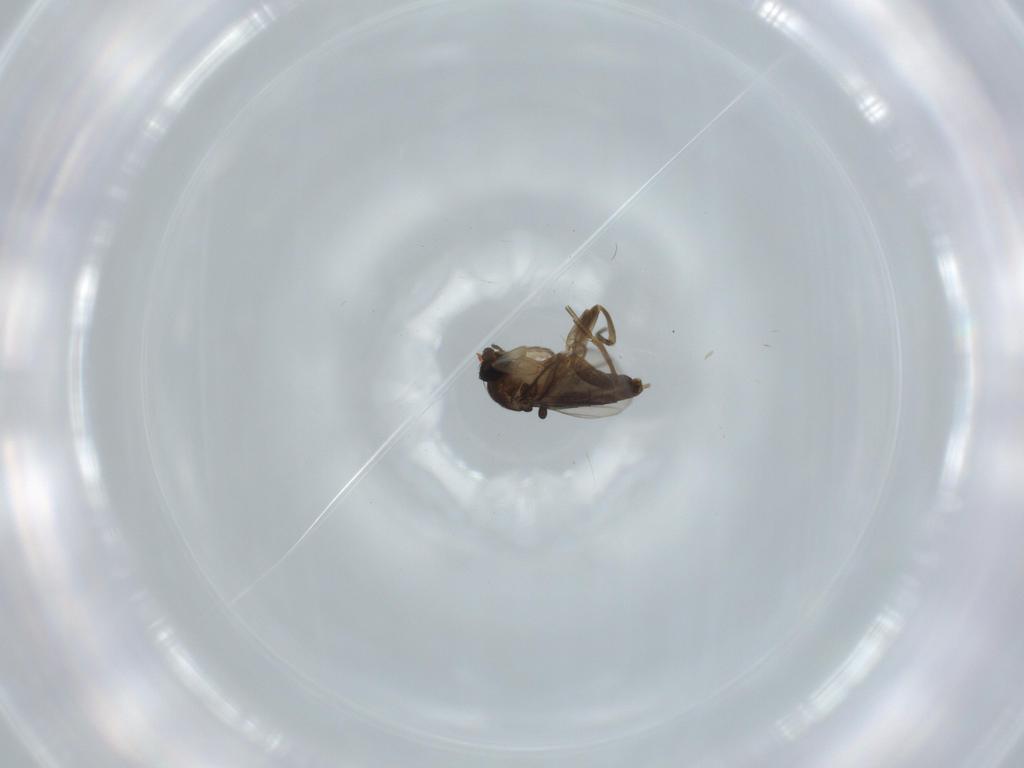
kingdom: Animalia
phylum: Arthropoda
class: Insecta
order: Diptera
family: Phoridae
